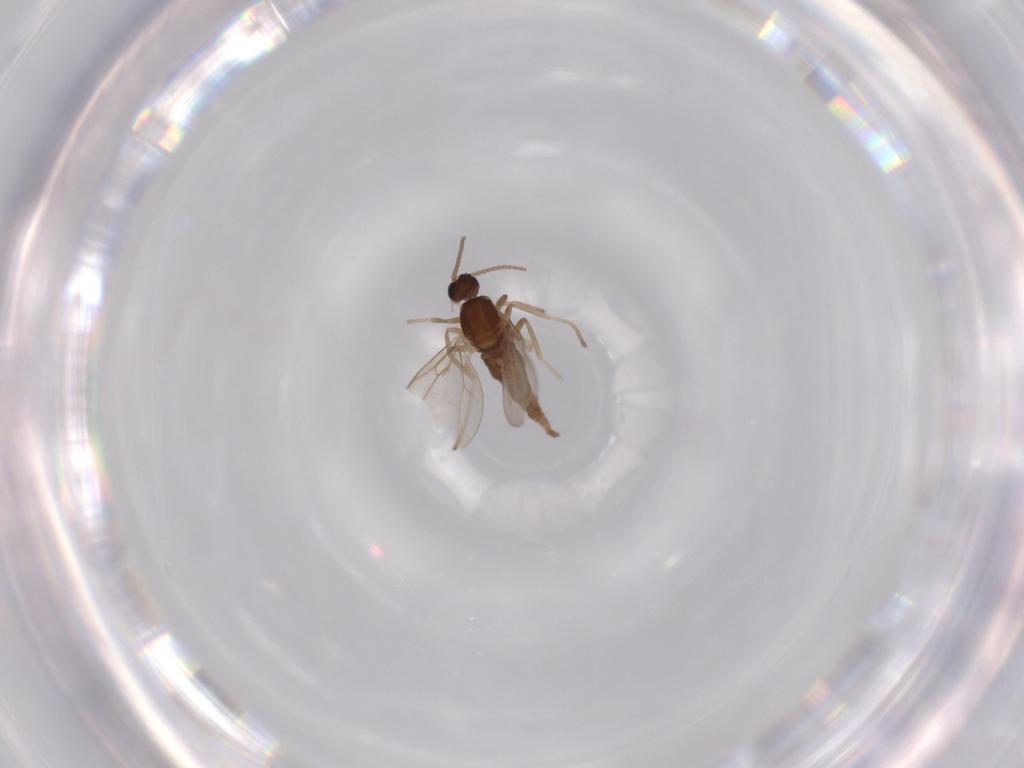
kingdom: Animalia
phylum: Arthropoda
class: Insecta
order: Diptera
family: Cecidomyiidae
